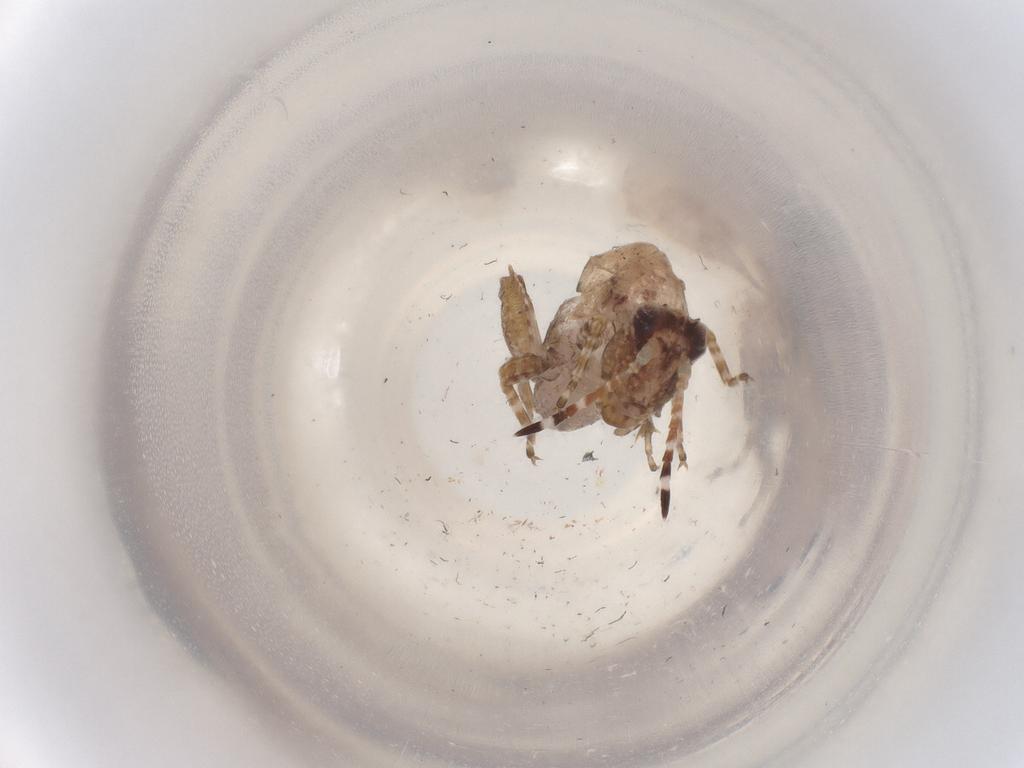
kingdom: Animalia
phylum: Arthropoda
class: Insecta
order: Orthoptera
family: Tetrigidae
